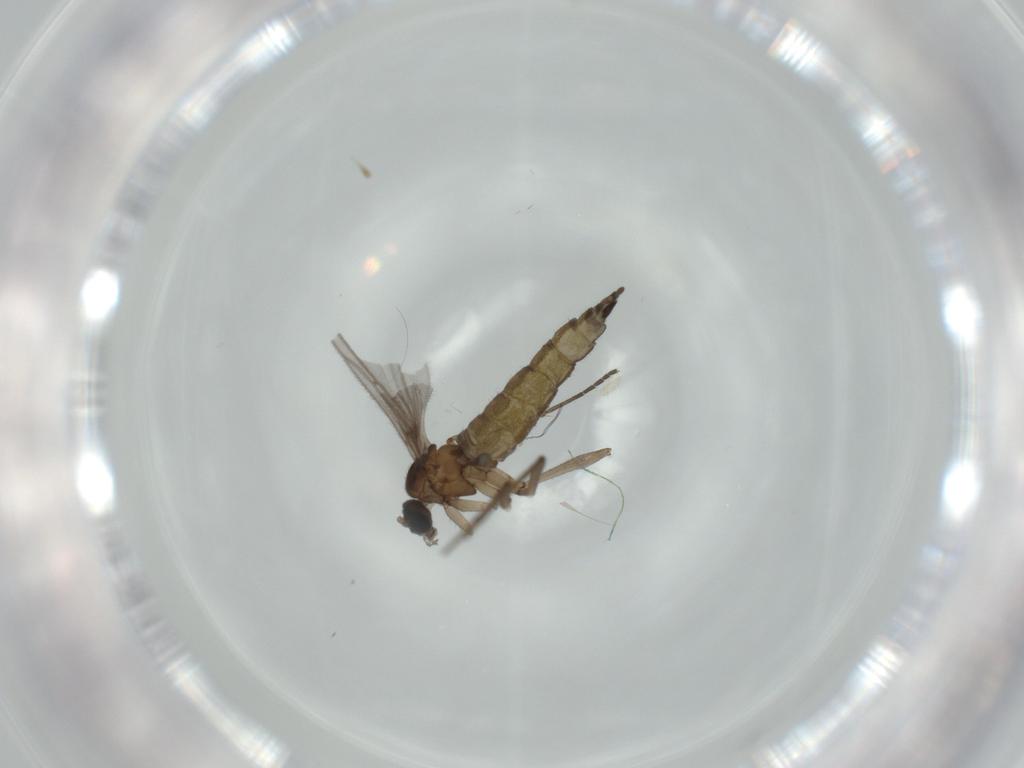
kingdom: Animalia
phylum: Arthropoda
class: Insecta
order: Diptera
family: Sciaridae
